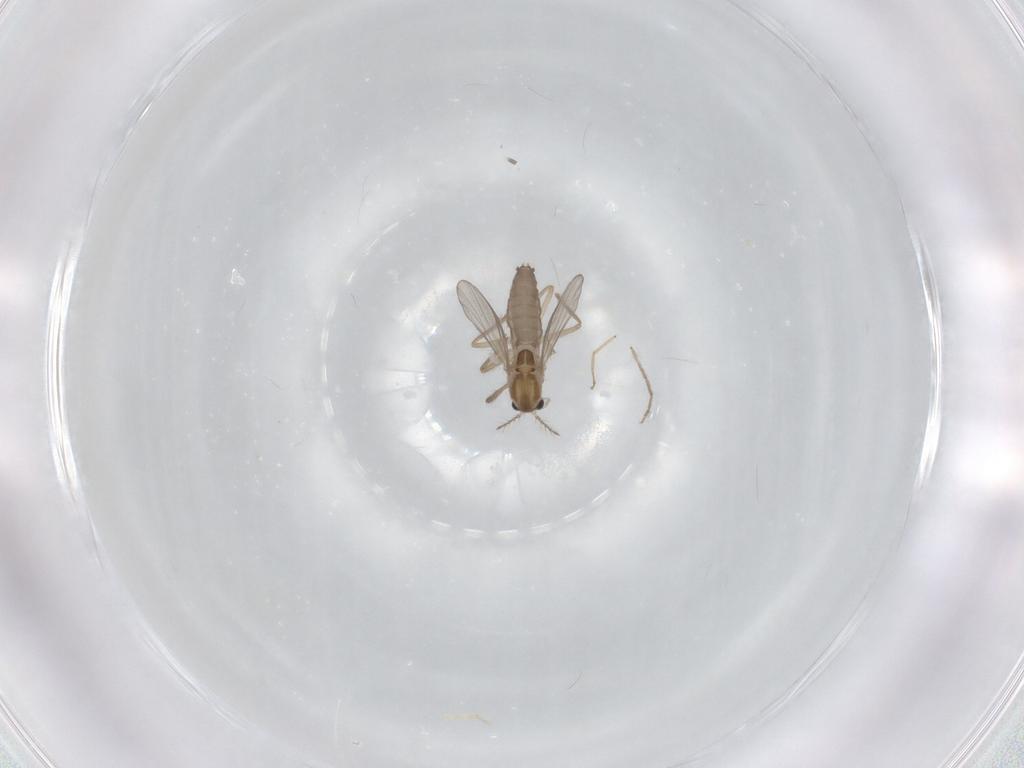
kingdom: Animalia
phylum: Arthropoda
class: Insecta
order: Diptera
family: Chironomidae
